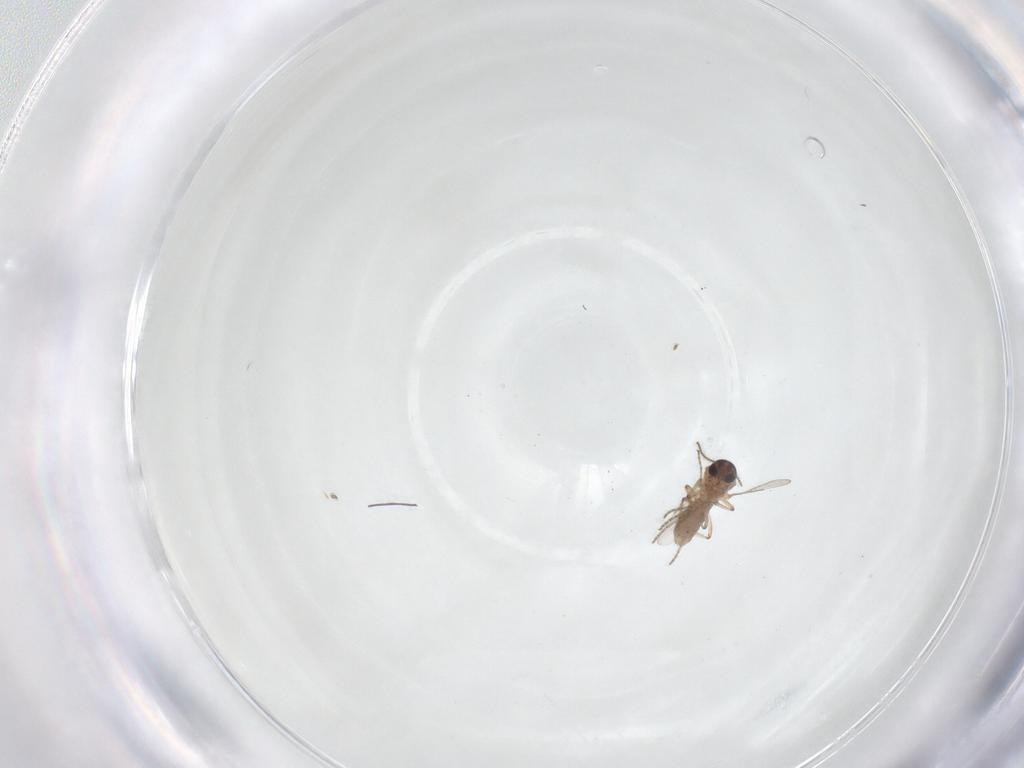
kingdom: Animalia
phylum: Arthropoda
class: Insecta
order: Diptera
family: Ceratopogonidae
